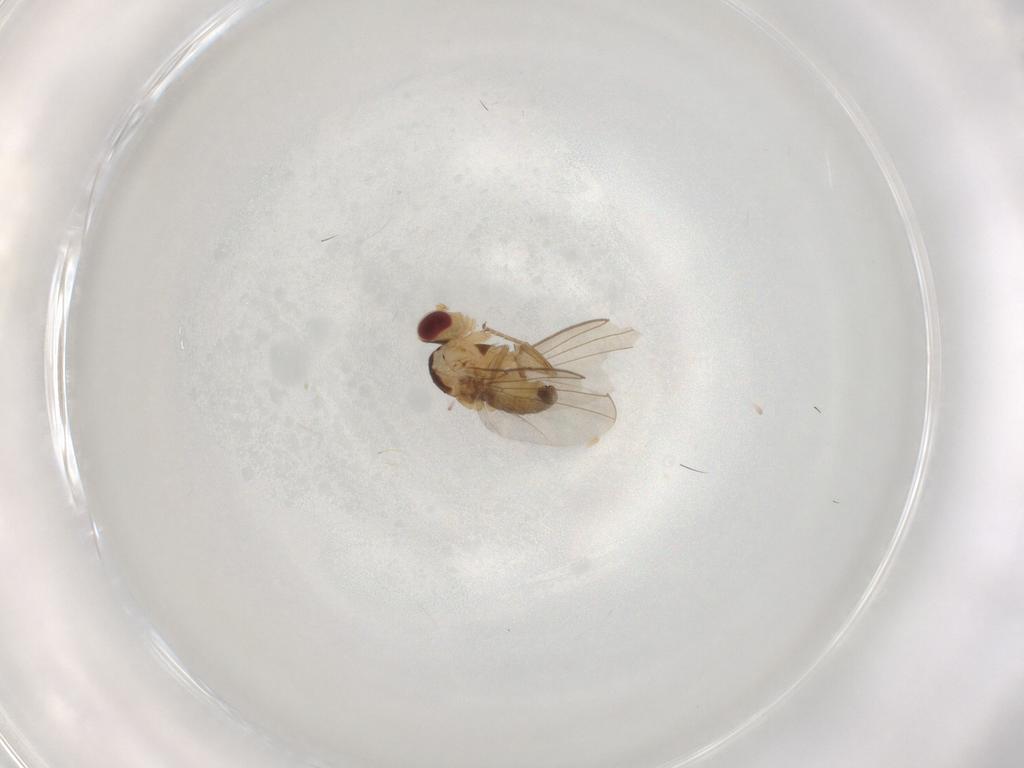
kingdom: Animalia
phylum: Arthropoda
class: Insecta
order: Diptera
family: Agromyzidae
